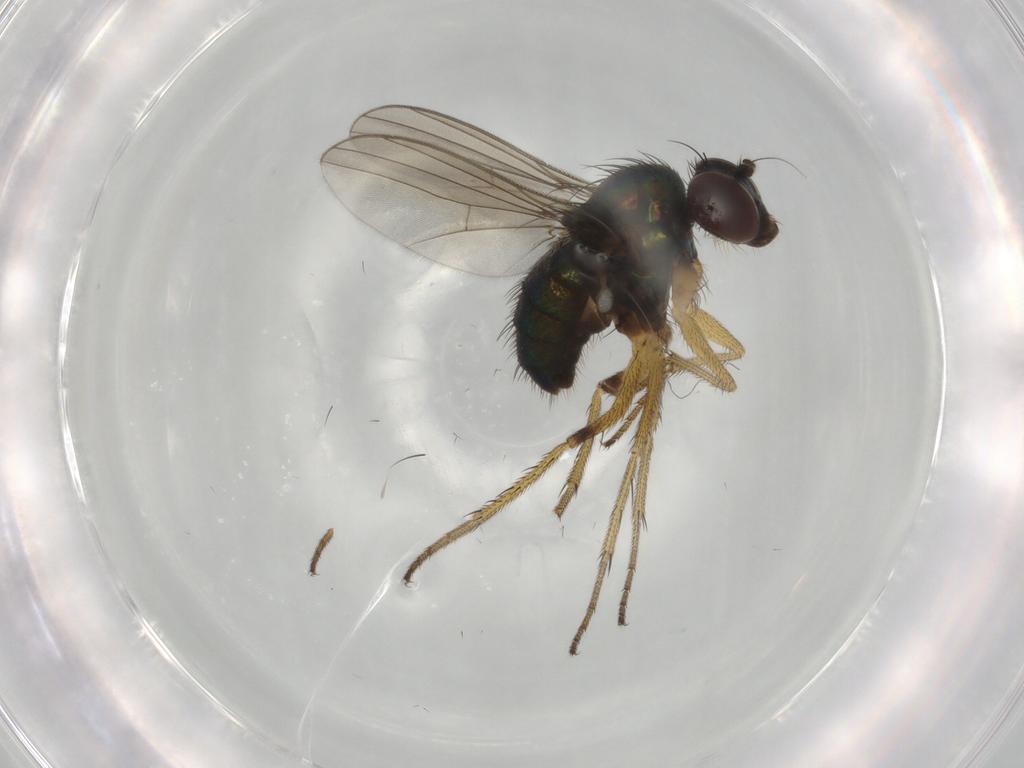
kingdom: Animalia
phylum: Arthropoda
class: Insecta
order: Diptera
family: Dolichopodidae
